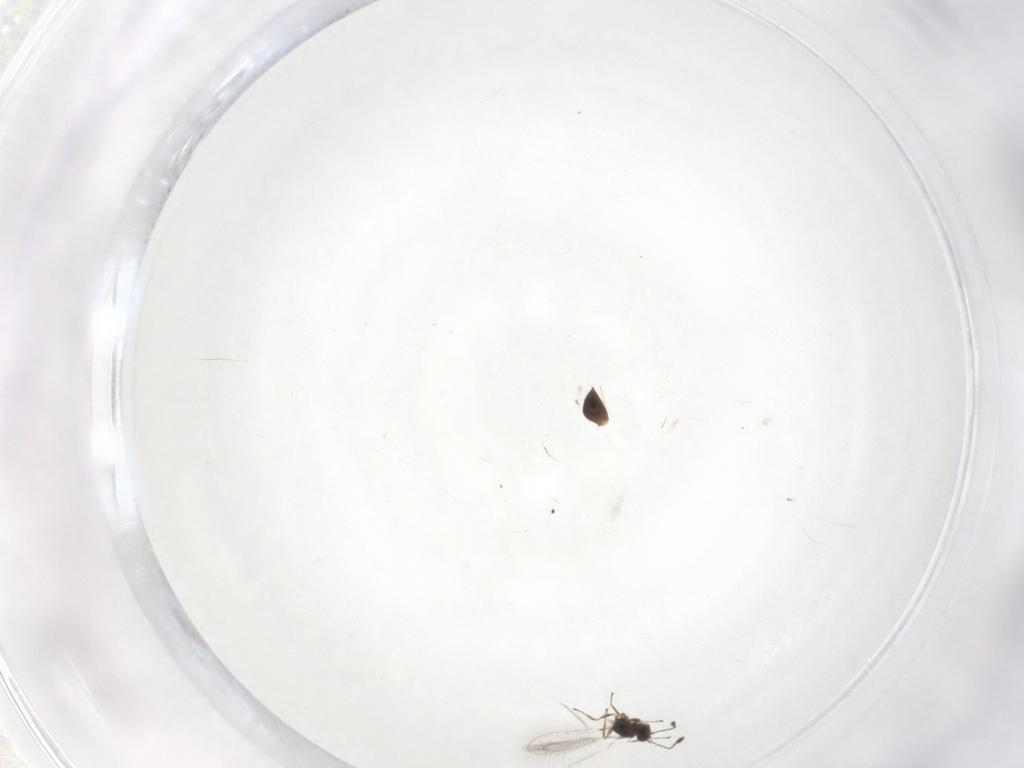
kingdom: Animalia
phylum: Arthropoda
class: Insecta
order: Hymenoptera
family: Mymaridae
